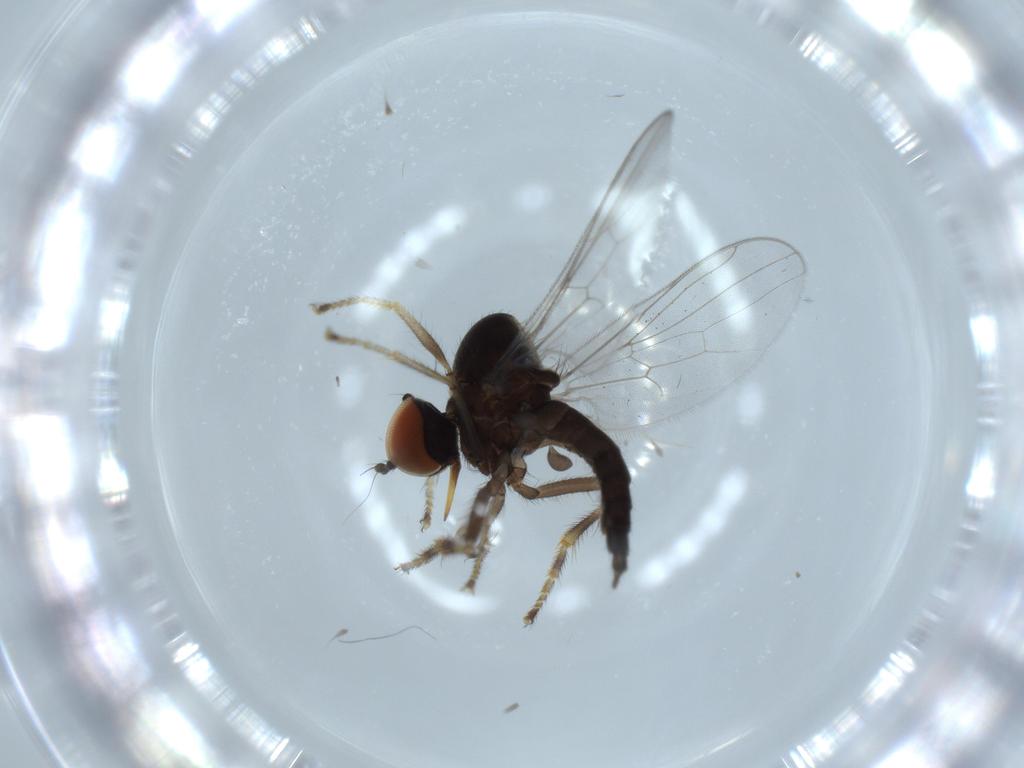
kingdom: Animalia
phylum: Arthropoda
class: Insecta
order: Diptera
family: Hybotidae
